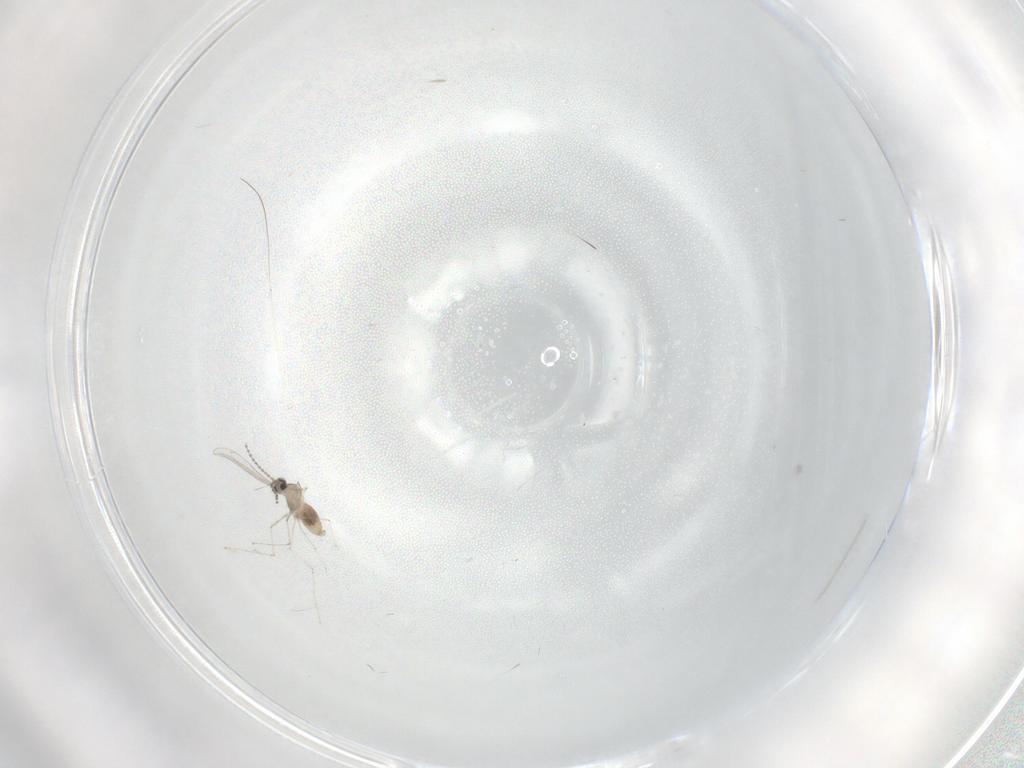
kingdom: Animalia
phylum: Arthropoda
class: Insecta
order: Diptera
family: Cecidomyiidae
